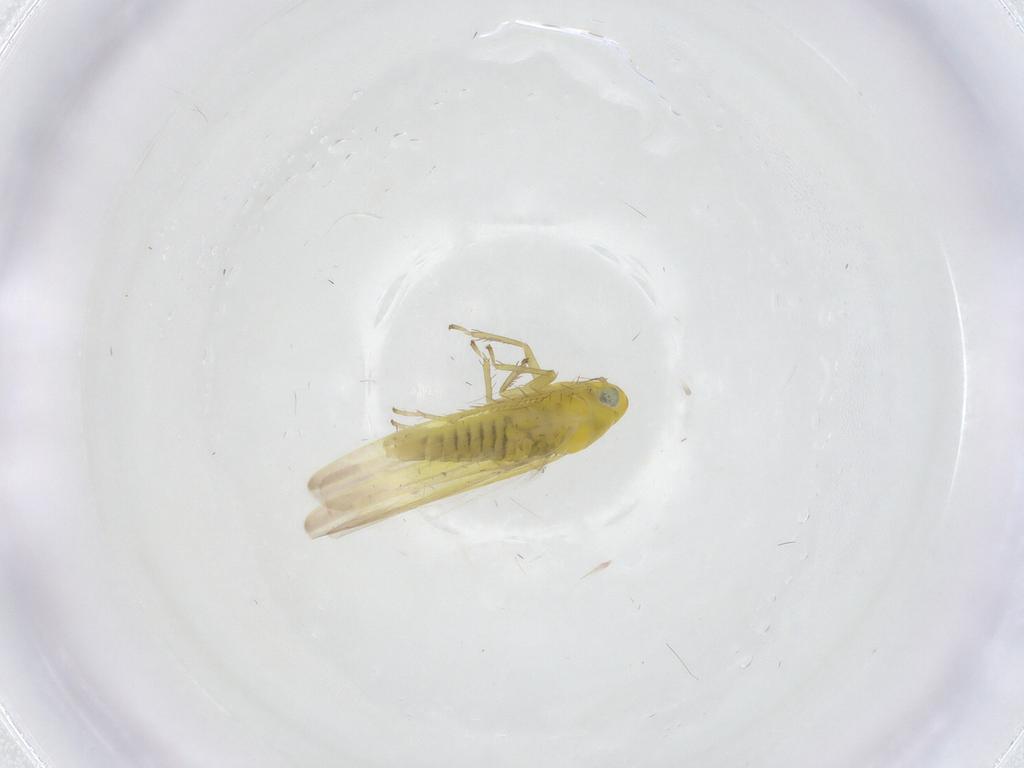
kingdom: Animalia
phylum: Arthropoda
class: Insecta
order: Hemiptera
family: Cicadellidae
